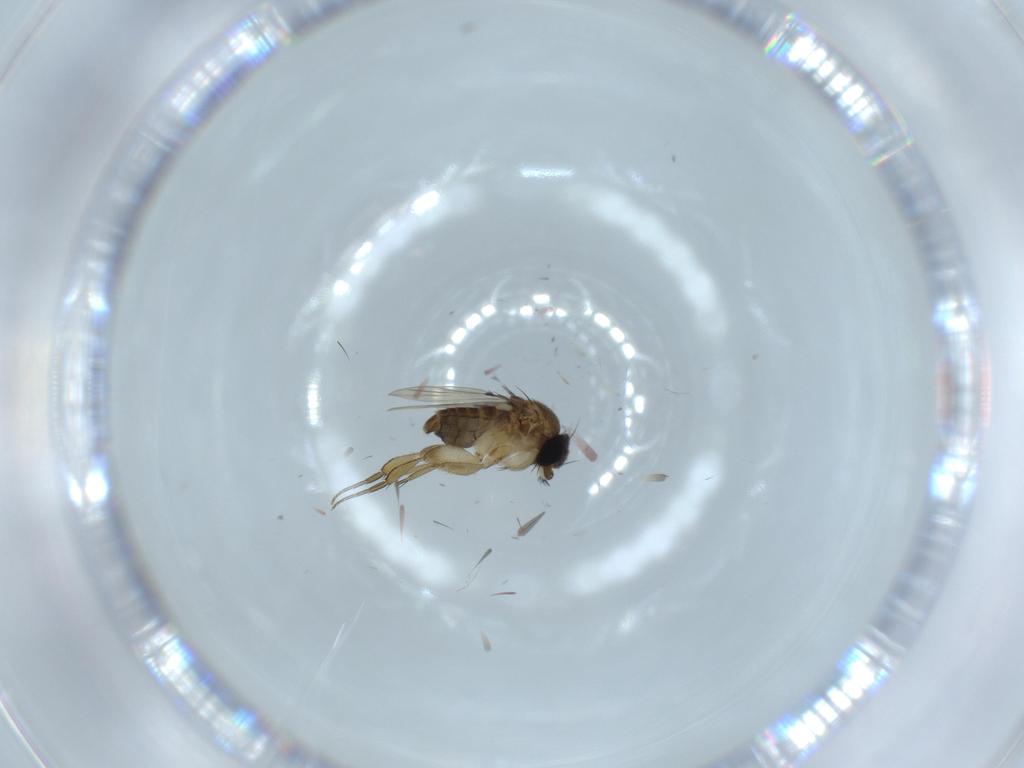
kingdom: Animalia
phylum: Arthropoda
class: Insecta
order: Diptera
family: Phoridae
